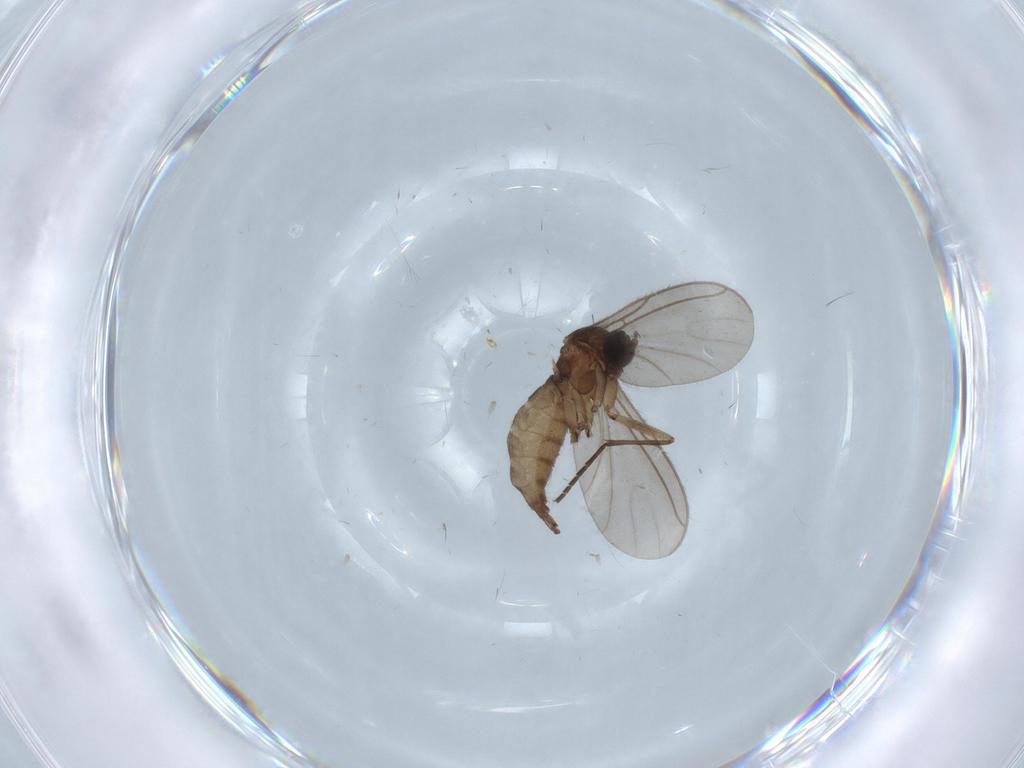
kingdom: Animalia
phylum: Arthropoda
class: Insecta
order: Diptera
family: Sciaridae
